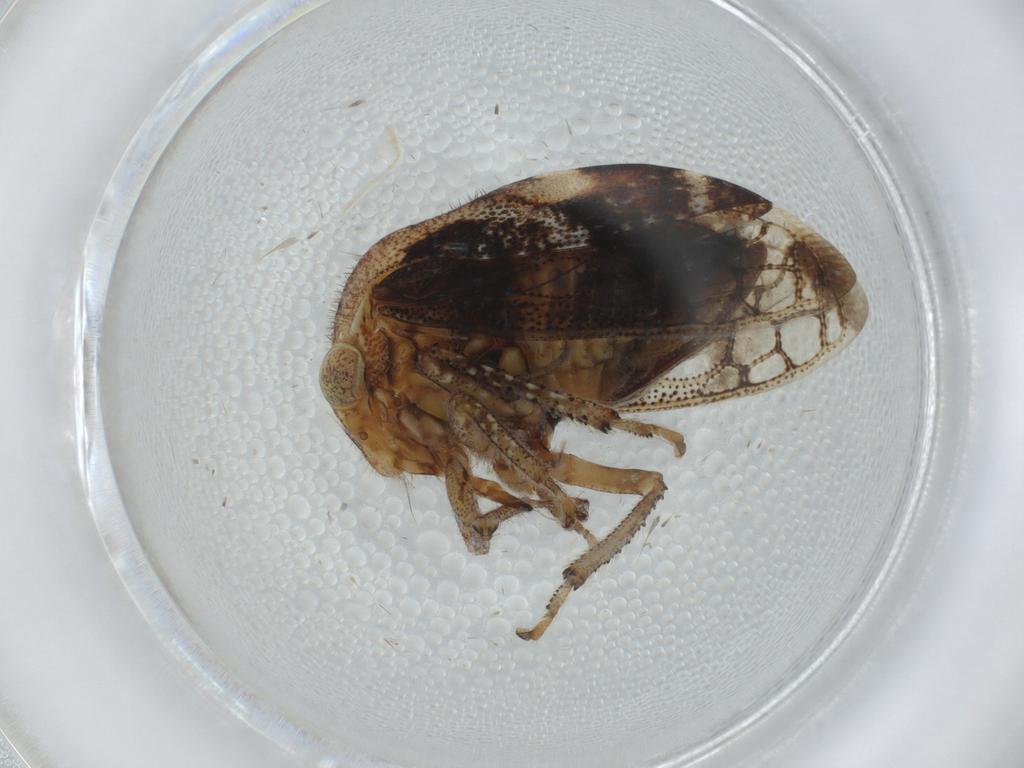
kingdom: Animalia
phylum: Arthropoda
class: Insecta
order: Hemiptera
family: Membracidae
